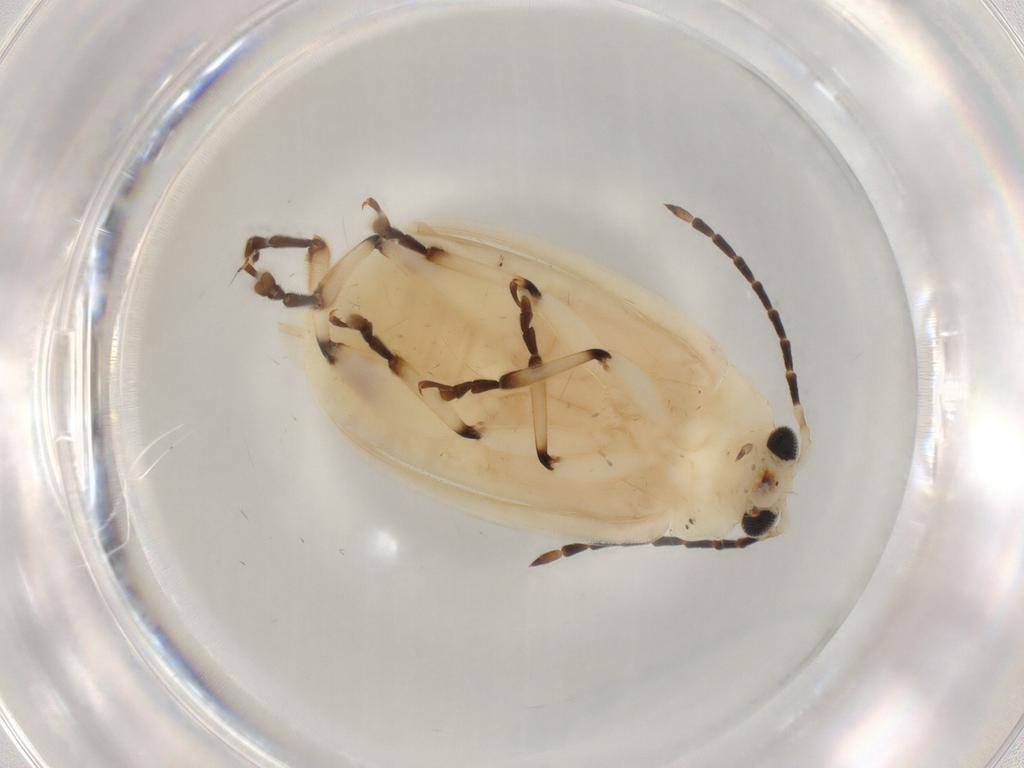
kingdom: Animalia
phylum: Arthropoda
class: Insecta
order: Coleoptera
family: Chrysomelidae
